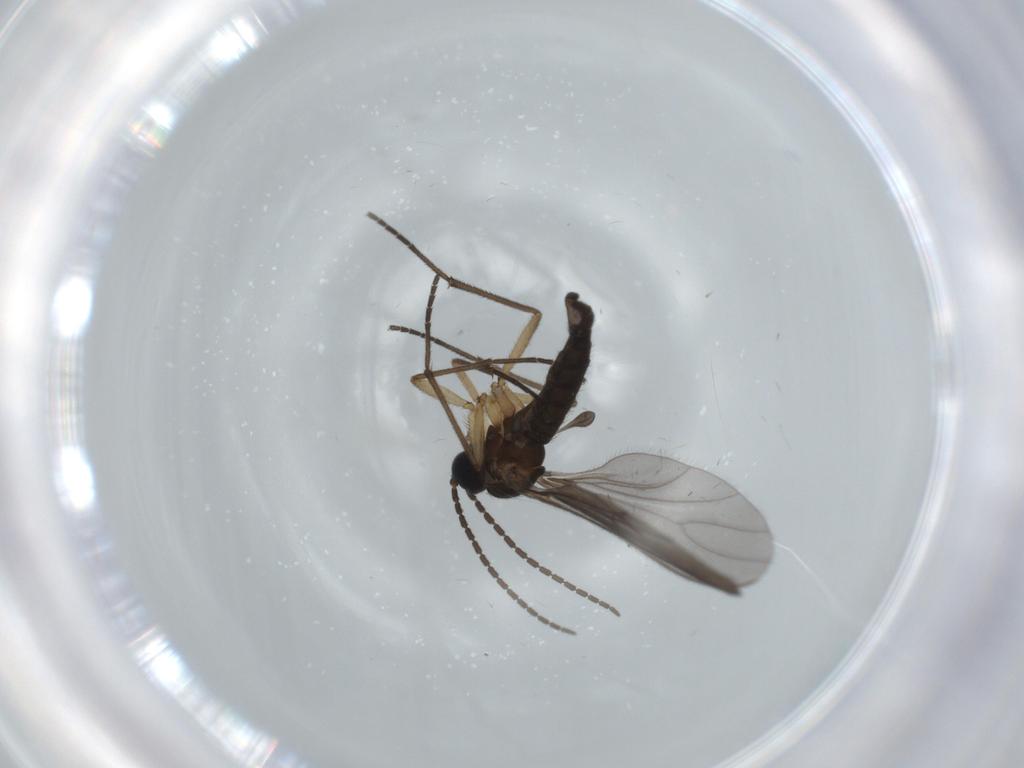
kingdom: Animalia
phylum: Arthropoda
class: Insecta
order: Diptera
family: Sciaridae
